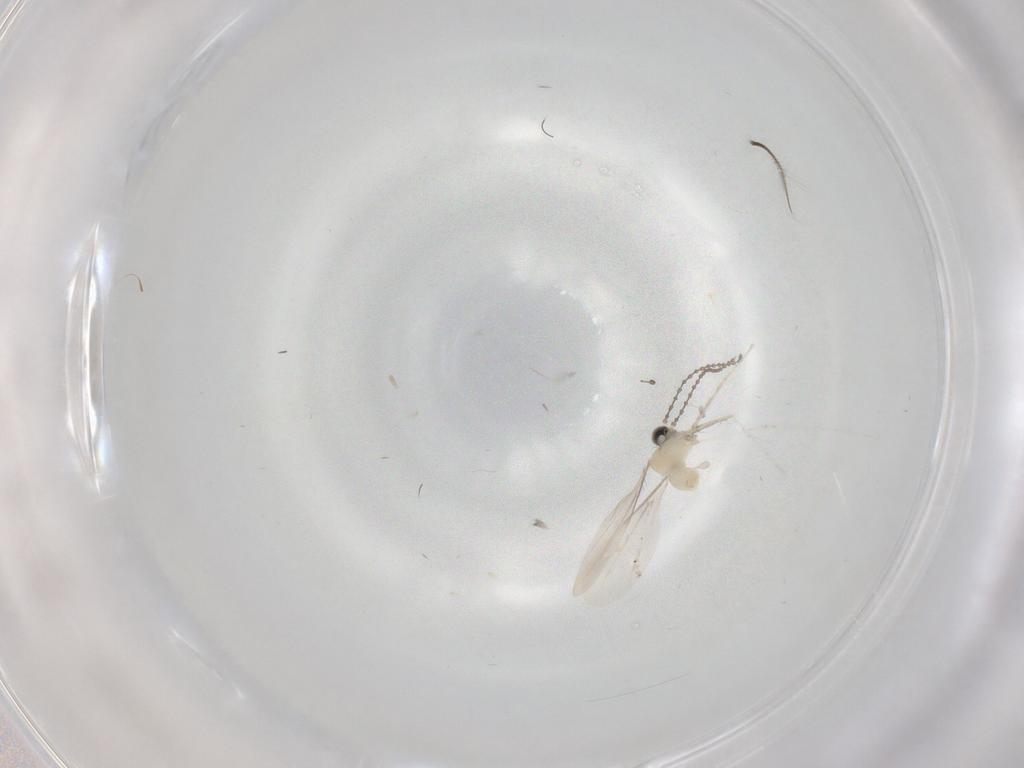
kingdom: Animalia
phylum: Arthropoda
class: Insecta
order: Diptera
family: Cecidomyiidae
